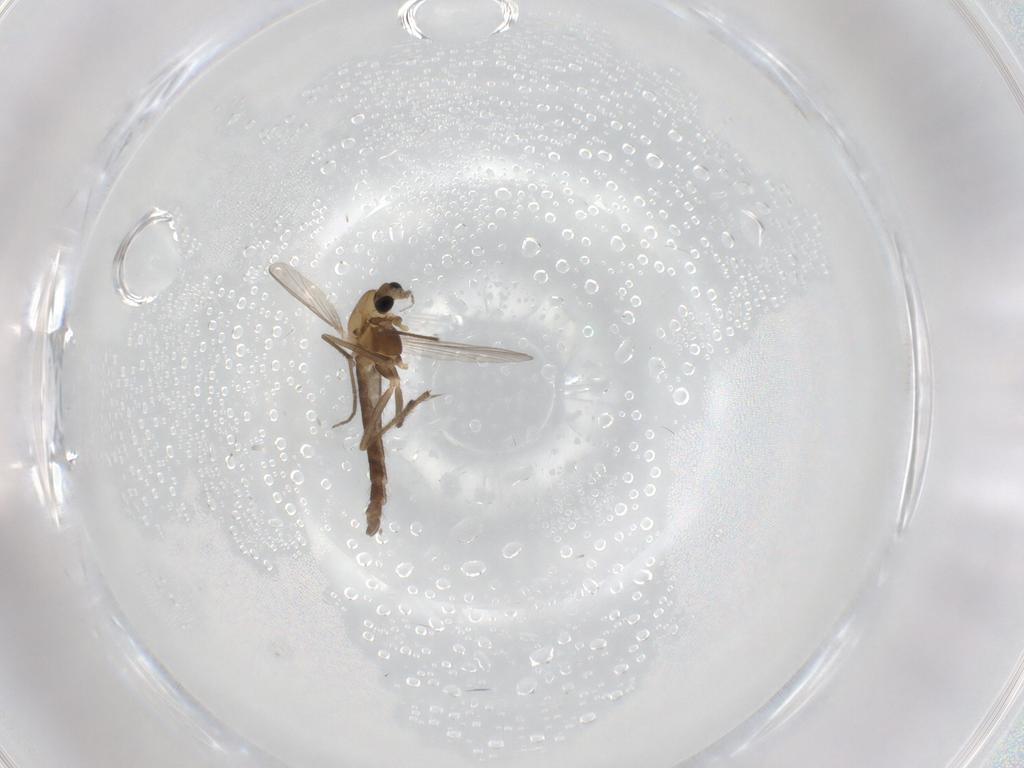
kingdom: Animalia
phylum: Arthropoda
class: Insecta
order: Diptera
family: Chironomidae
